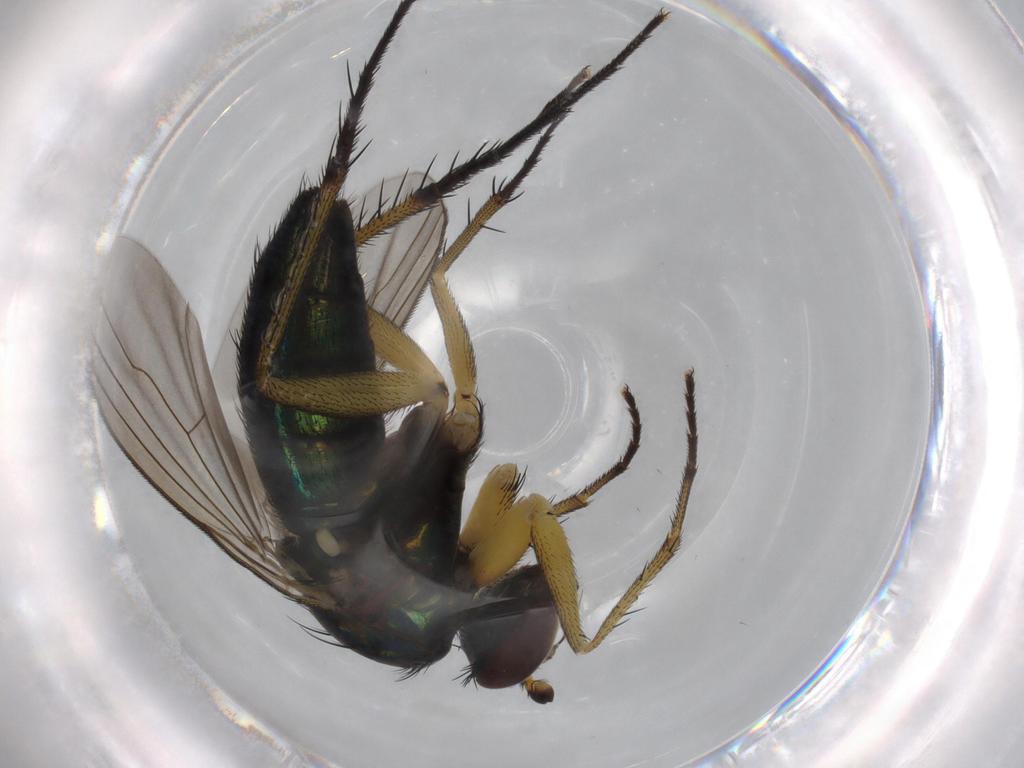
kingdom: Animalia
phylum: Arthropoda
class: Insecta
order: Diptera
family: Dolichopodidae
